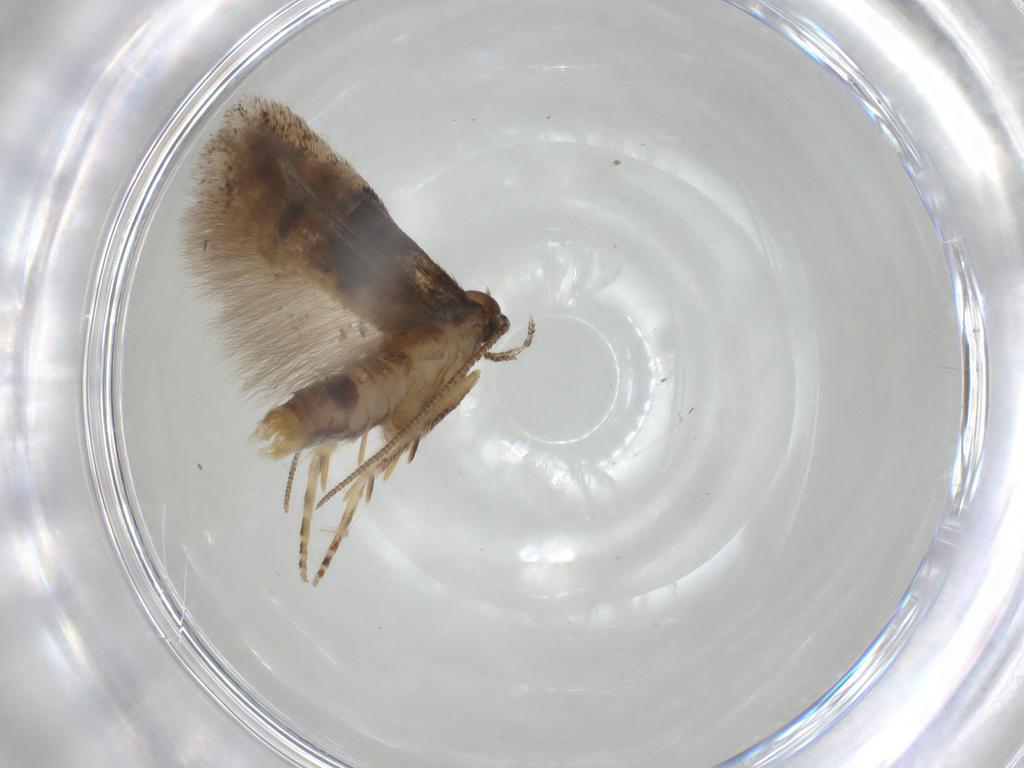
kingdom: Animalia
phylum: Arthropoda
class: Insecta
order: Lepidoptera
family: Gelechiidae
